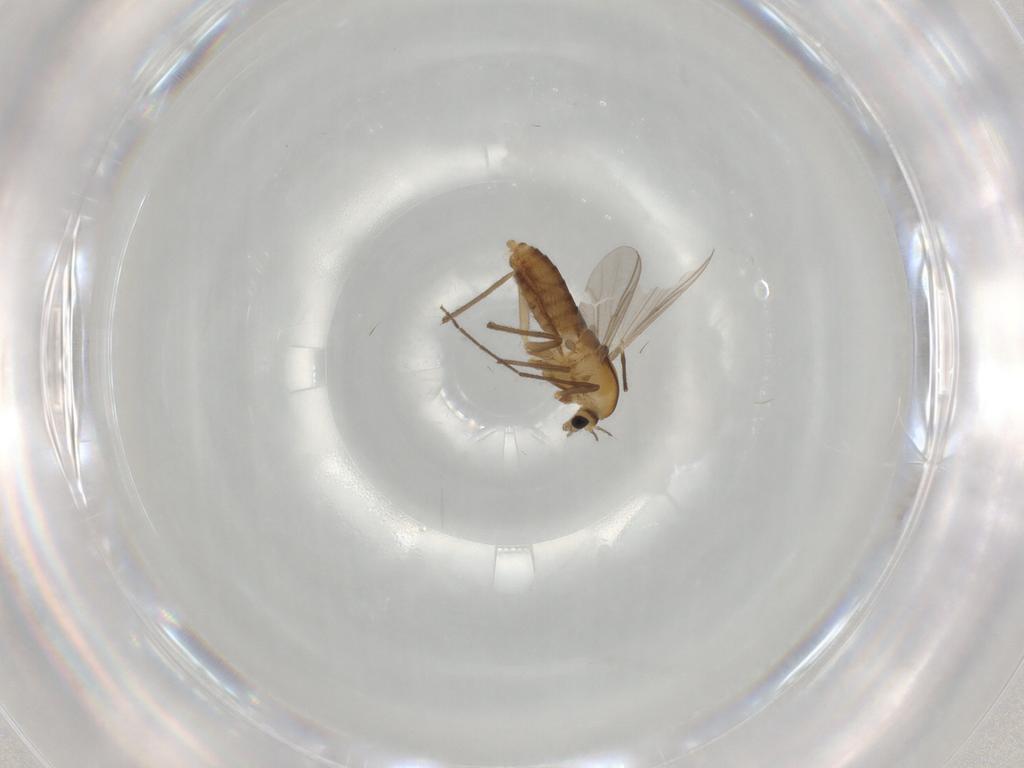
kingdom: Animalia
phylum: Arthropoda
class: Insecta
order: Diptera
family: Chironomidae
